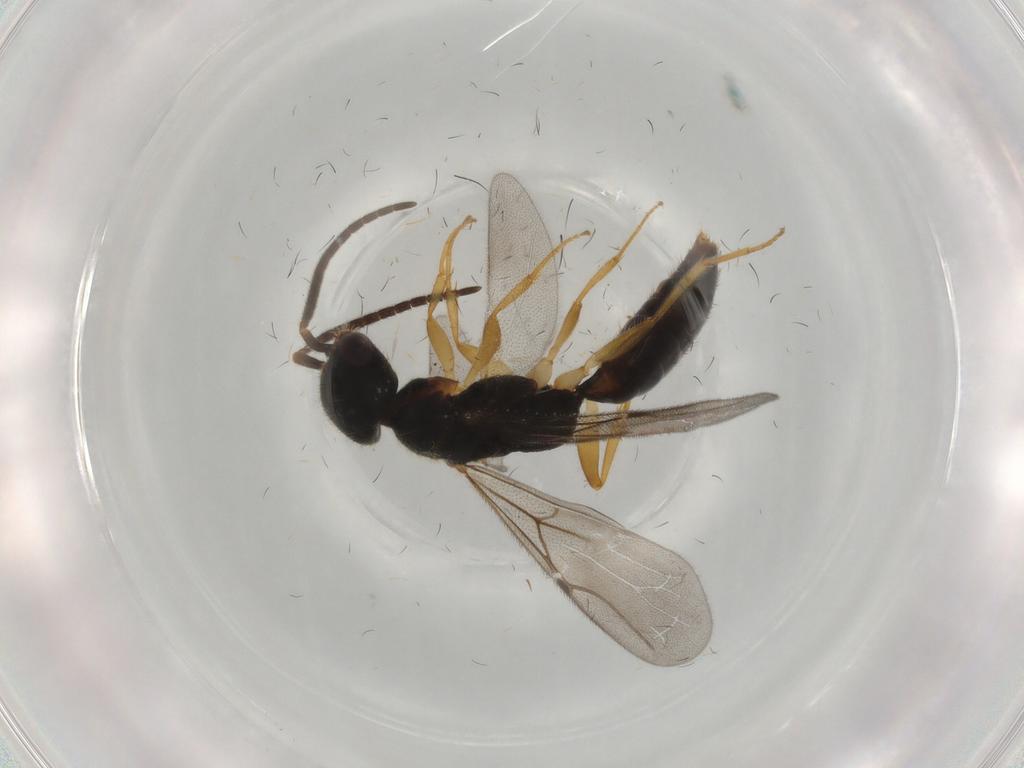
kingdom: Animalia
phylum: Arthropoda
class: Insecta
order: Hymenoptera
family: Bethylidae
